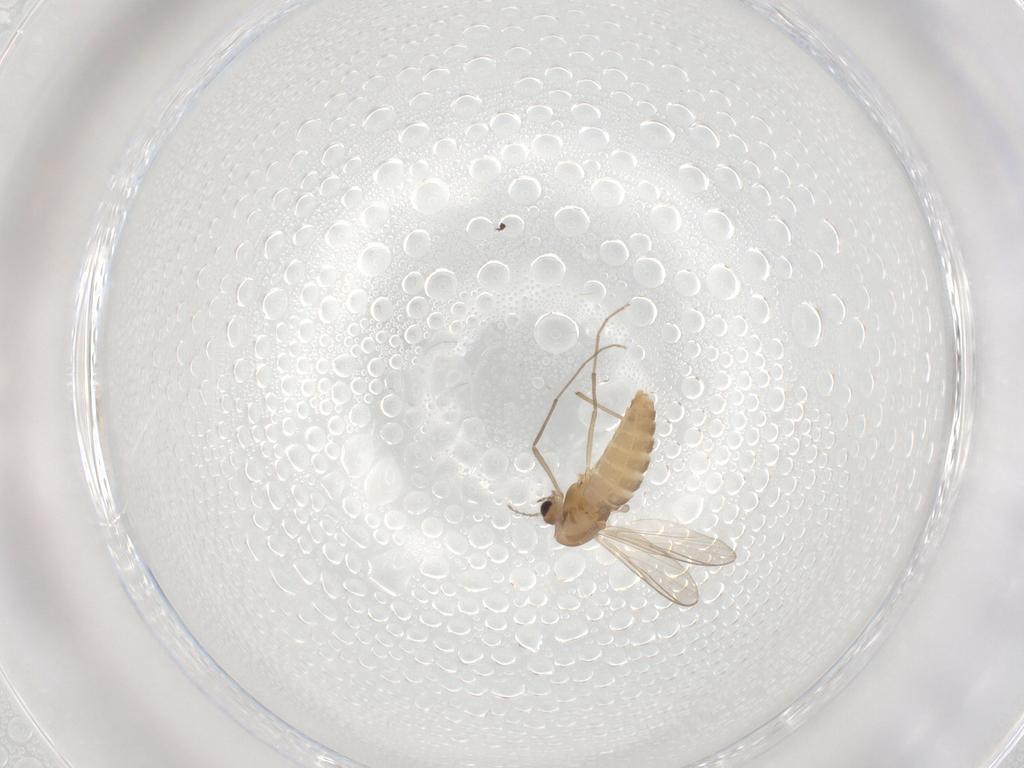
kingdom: Animalia
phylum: Arthropoda
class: Insecta
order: Diptera
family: Chironomidae
